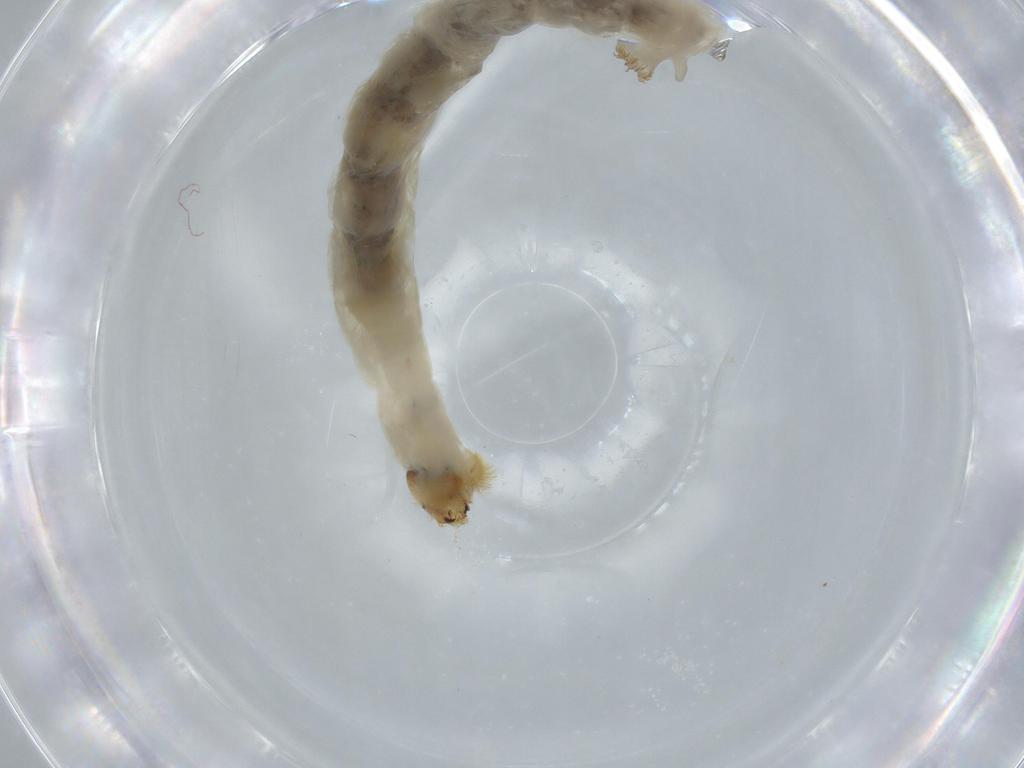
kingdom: Animalia
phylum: Arthropoda
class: Insecta
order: Diptera
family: Chironomidae
